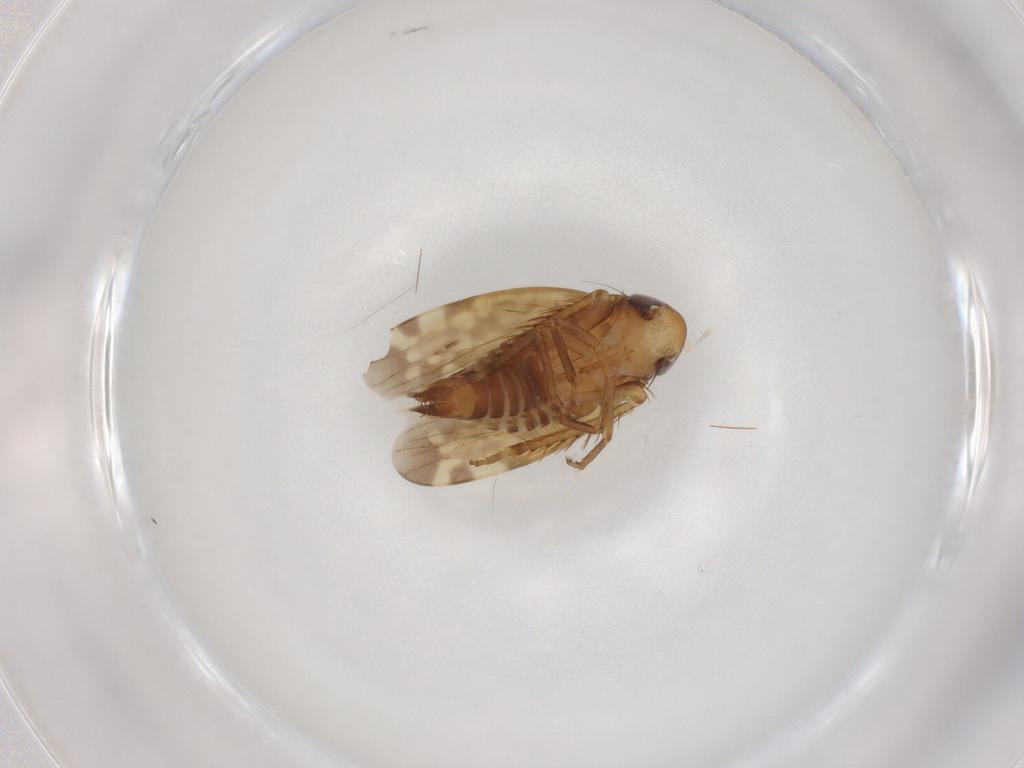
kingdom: Animalia
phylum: Arthropoda
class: Insecta
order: Hemiptera
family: Cicadellidae
